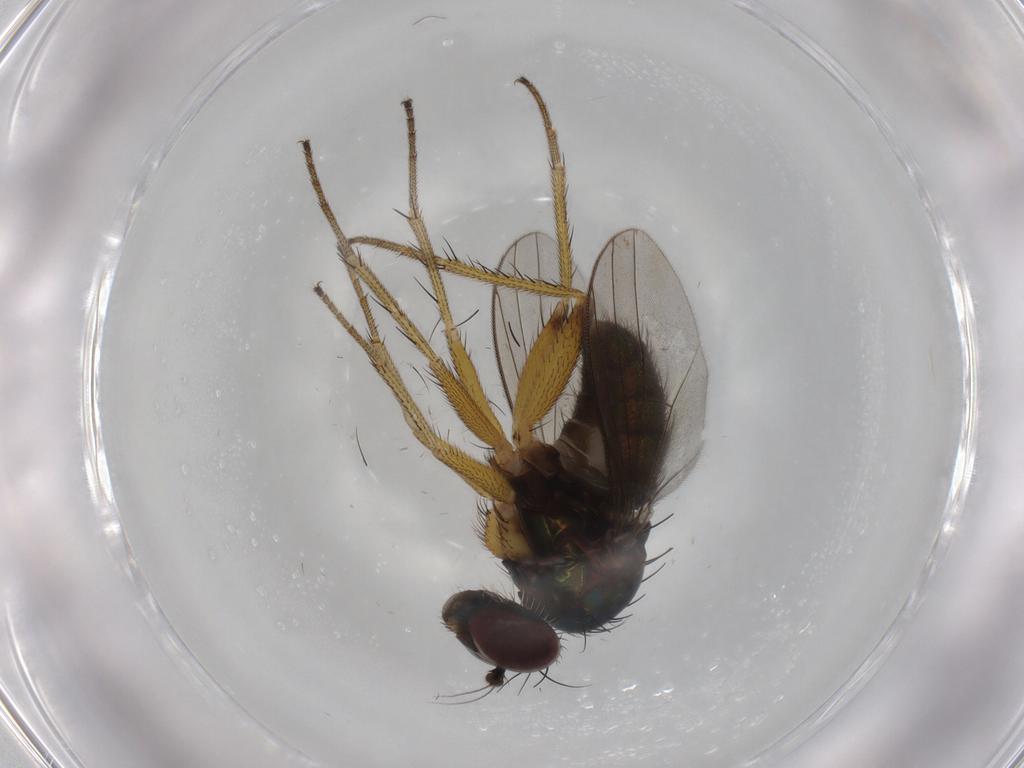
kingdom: Animalia
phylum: Arthropoda
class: Insecta
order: Diptera
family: Dolichopodidae
